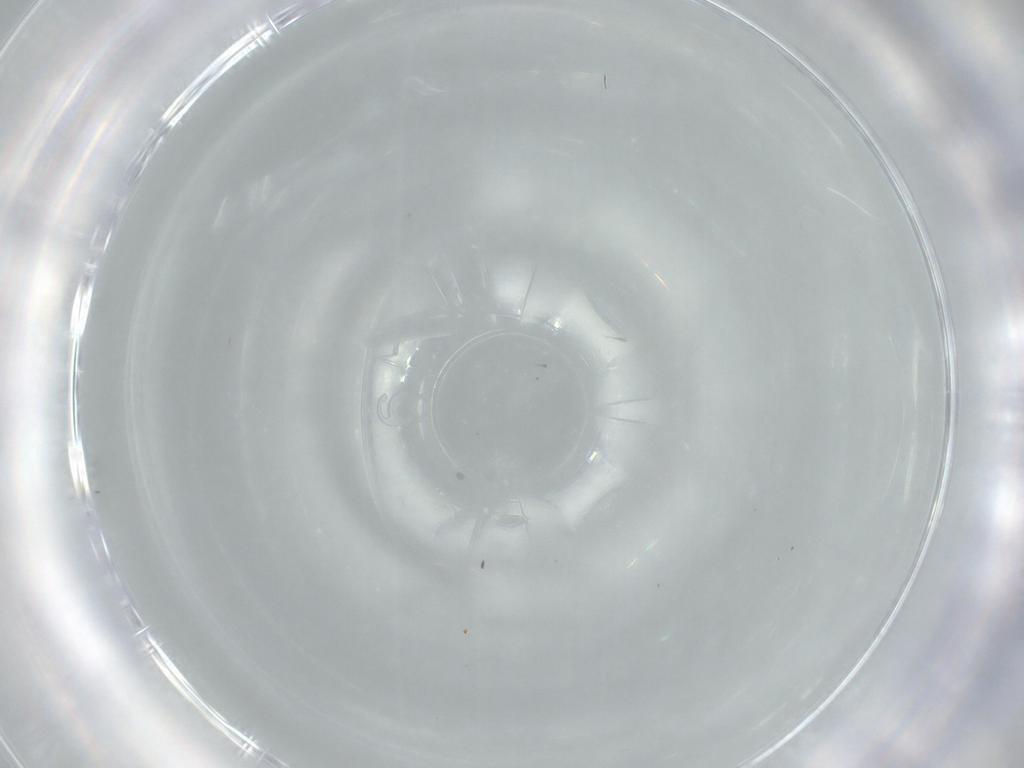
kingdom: Animalia
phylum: Arthropoda
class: Insecta
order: Diptera
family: Cecidomyiidae
